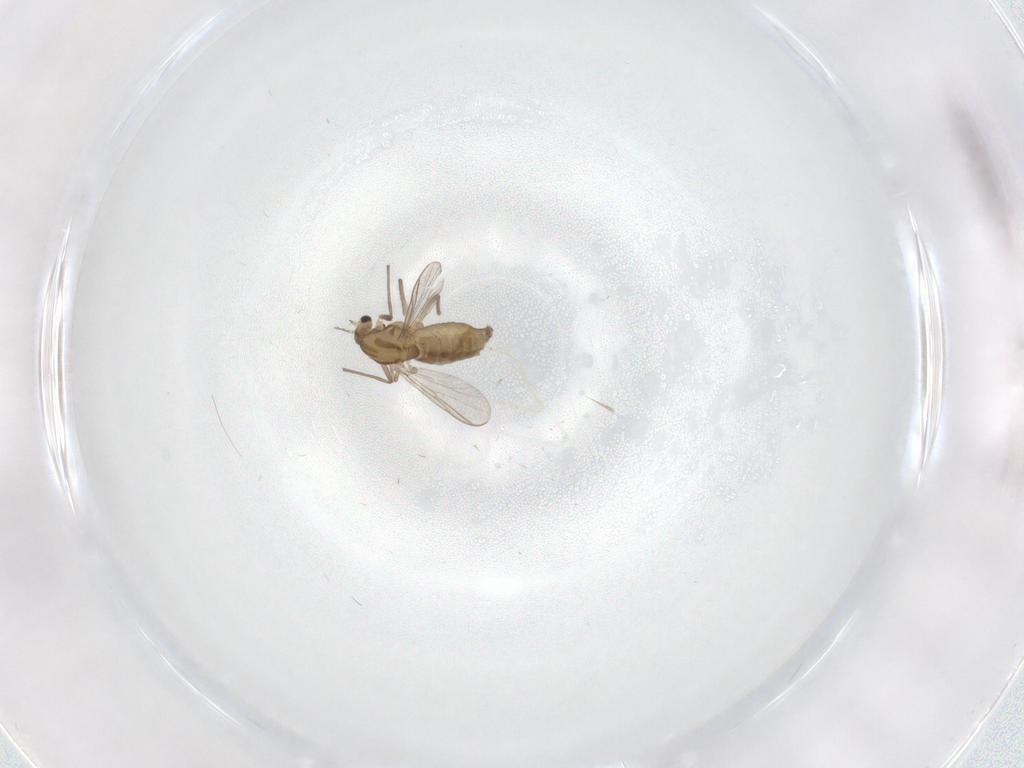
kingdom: Animalia
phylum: Arthropoda
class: Insecta
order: Diptera
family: Chironomidae
